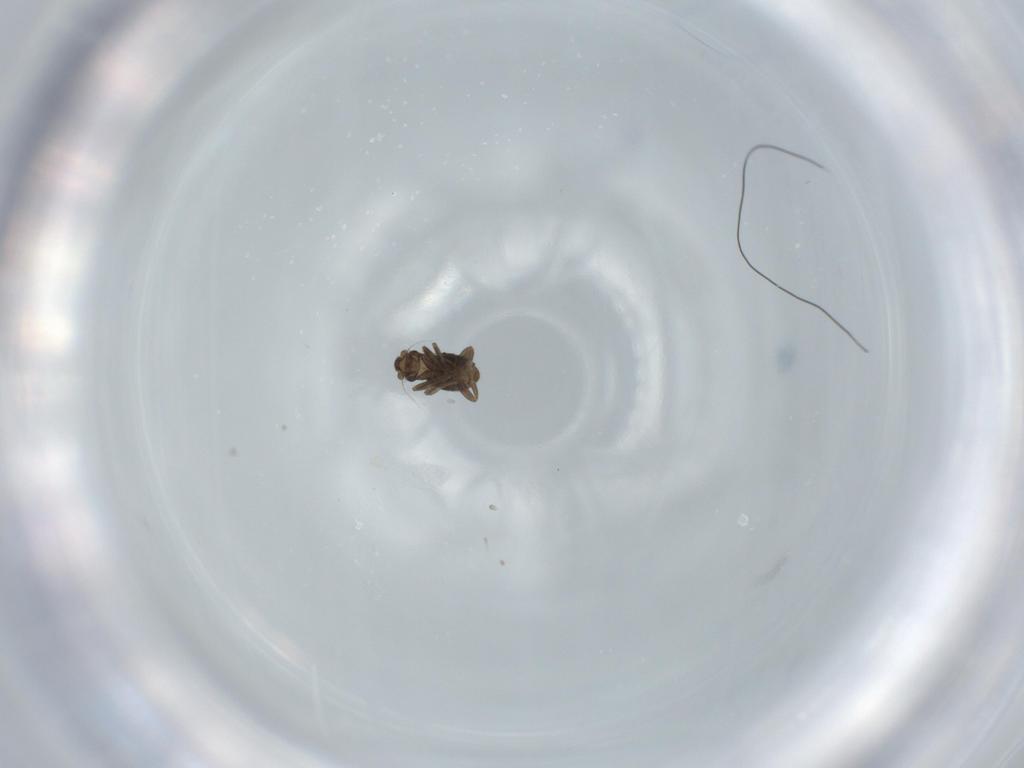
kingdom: Animalia
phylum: Arthropoda
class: Insecta
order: Diptera
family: Phoridae
